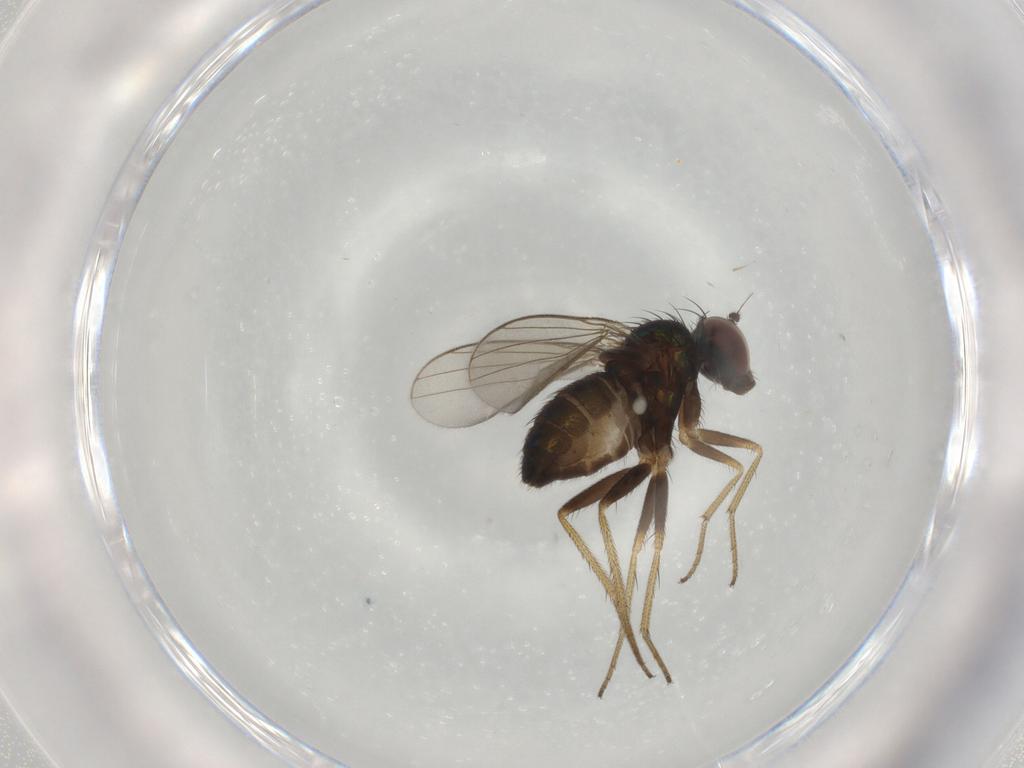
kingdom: Animalia
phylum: Arthropoda
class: Insecta
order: Diptera
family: Dolichopodidae
